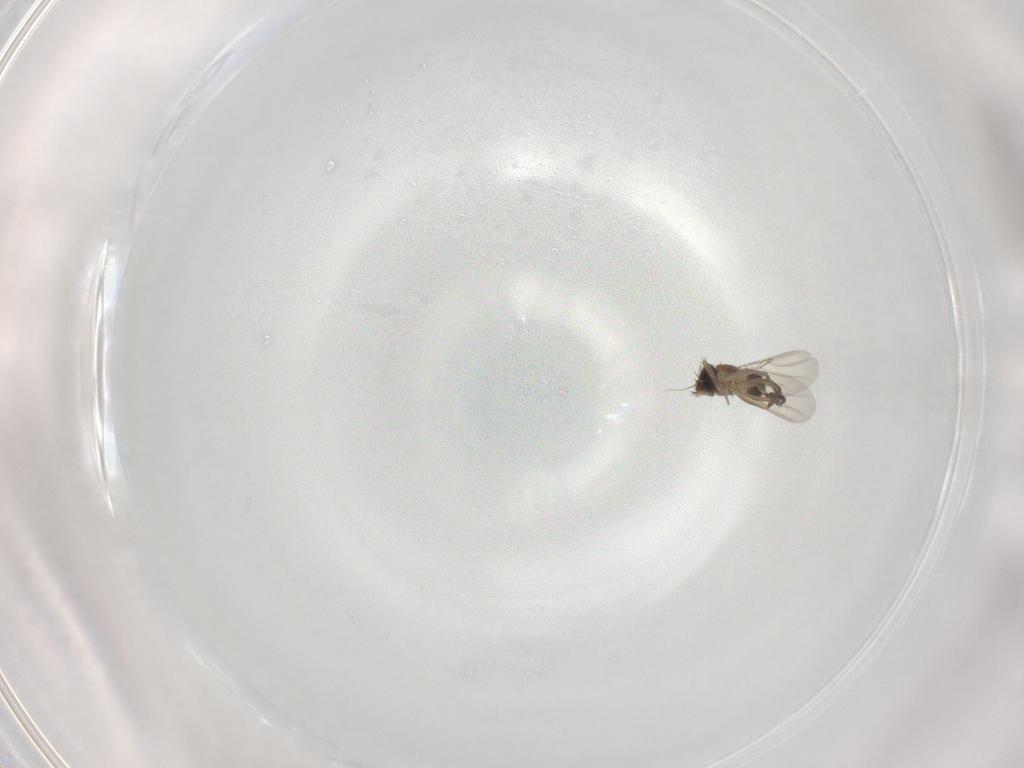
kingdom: Animalia
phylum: Arthropoda
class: Insecta
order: Diptera
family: Phoridae
